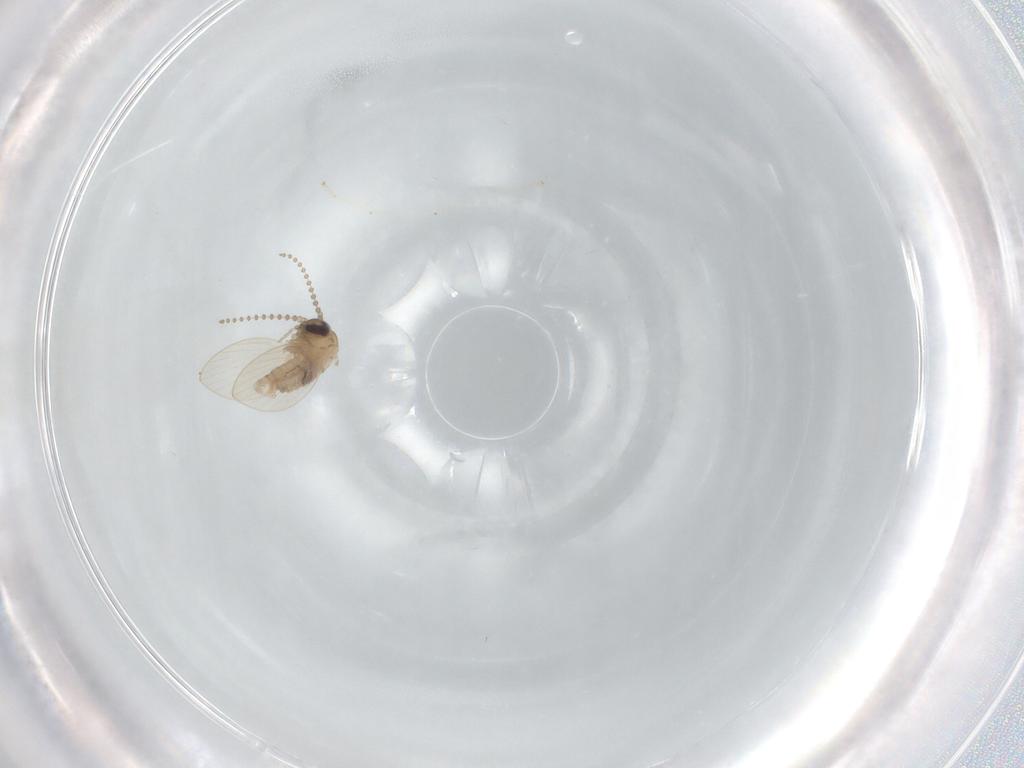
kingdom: Animalia
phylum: Arthropoda
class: Insecta
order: Diptera
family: Psychodidae
